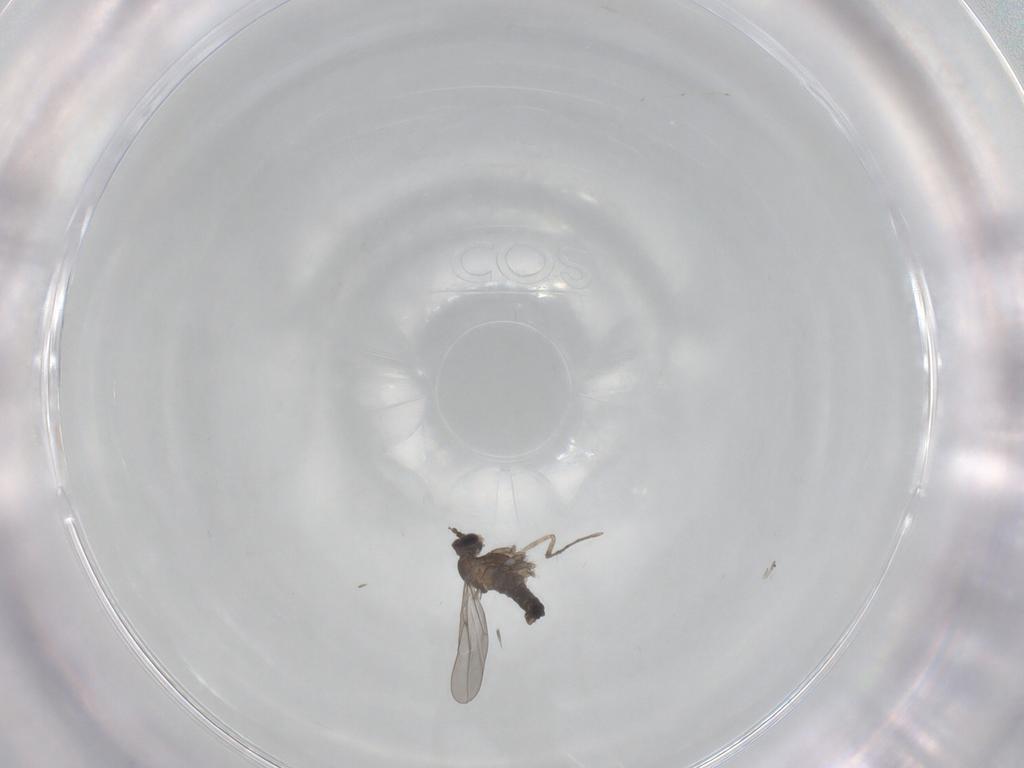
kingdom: Animalia
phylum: Arthropoda
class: Insecta
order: Diptera
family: Cecidomyiidae
